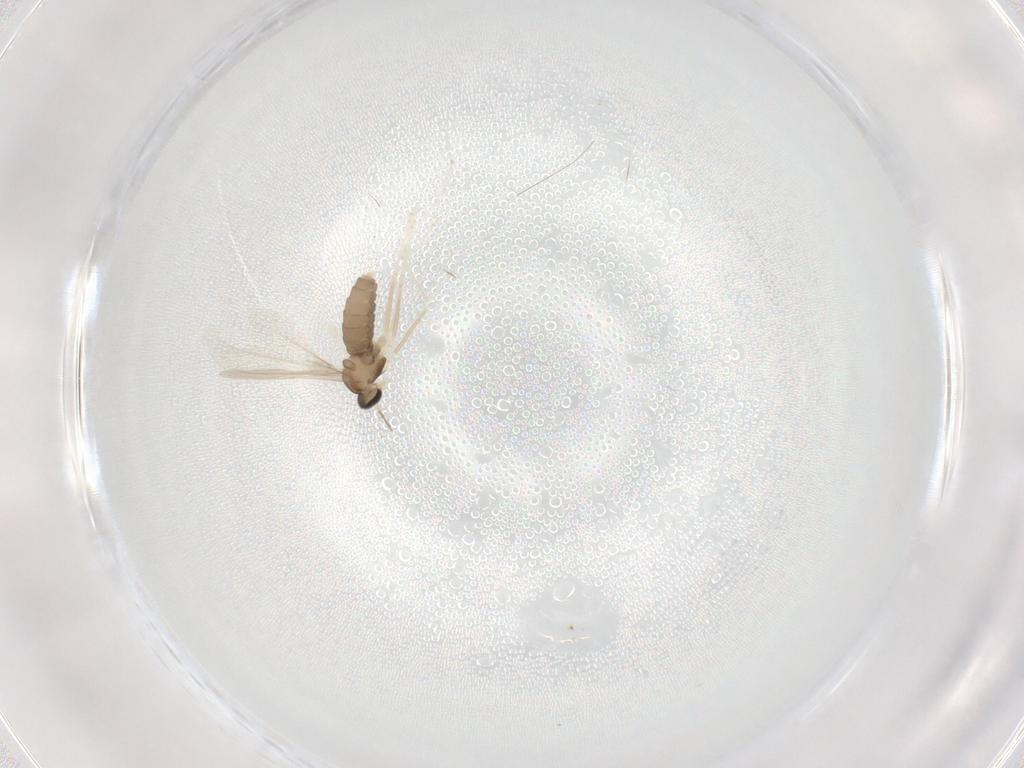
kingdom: Animalia
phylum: Arthropoda
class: Insecta
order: Diptera
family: Cecidomyiidae
